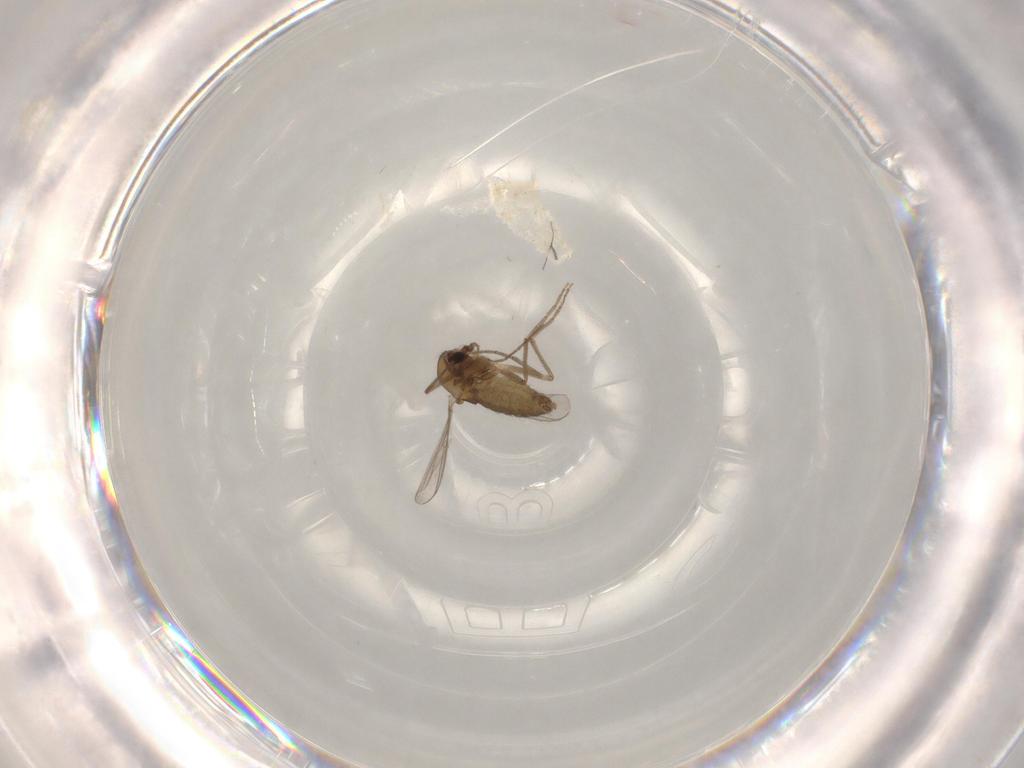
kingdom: Animalia
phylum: Arthropoda
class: Insecta
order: Diptera
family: Chironomidae
